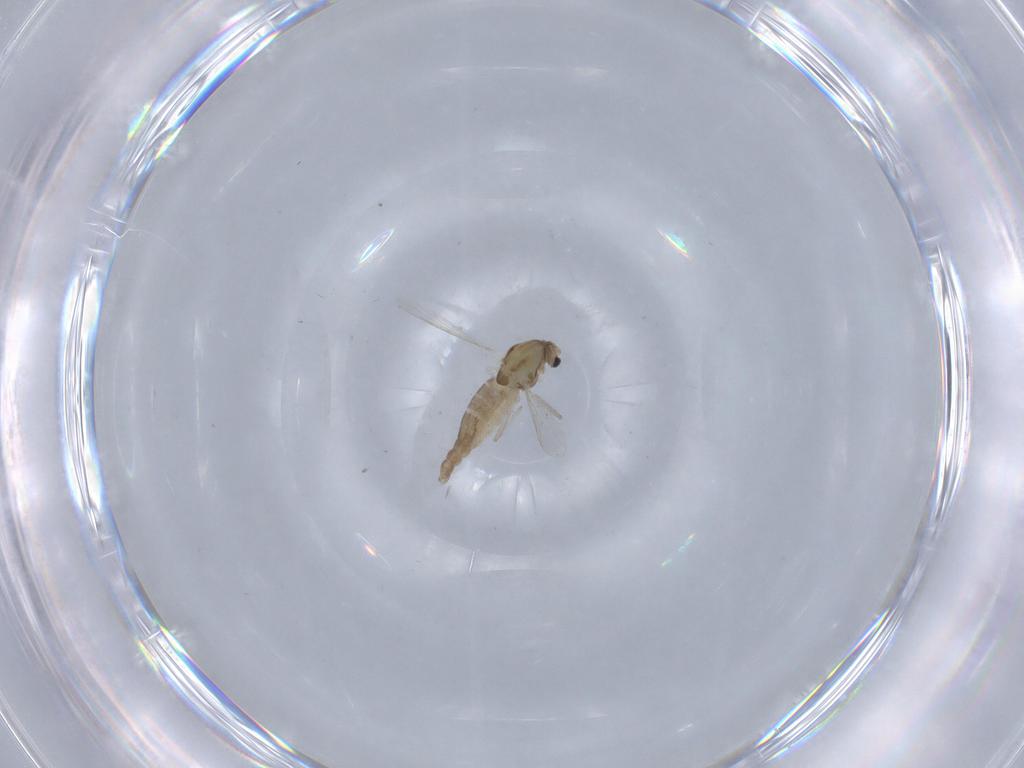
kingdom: Animalia
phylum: Arthropoda
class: Insecta
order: Diptera
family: Chironomidae
